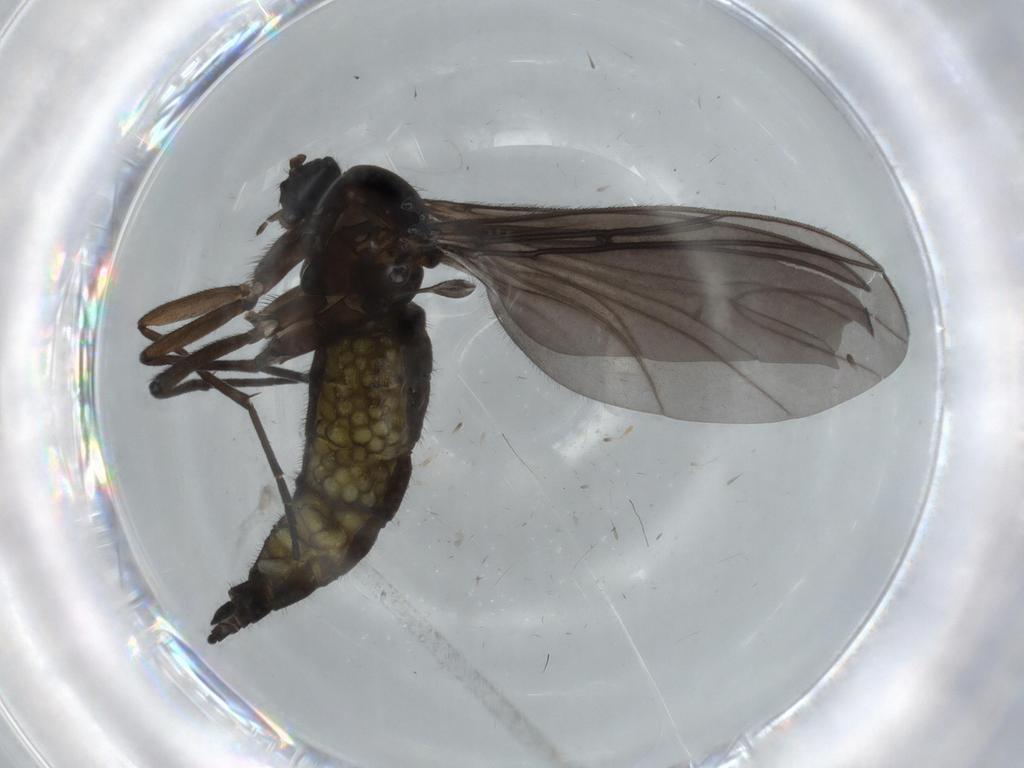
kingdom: Animalia
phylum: Arthropoda
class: Insecta
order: Diptera
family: Sciaridae
